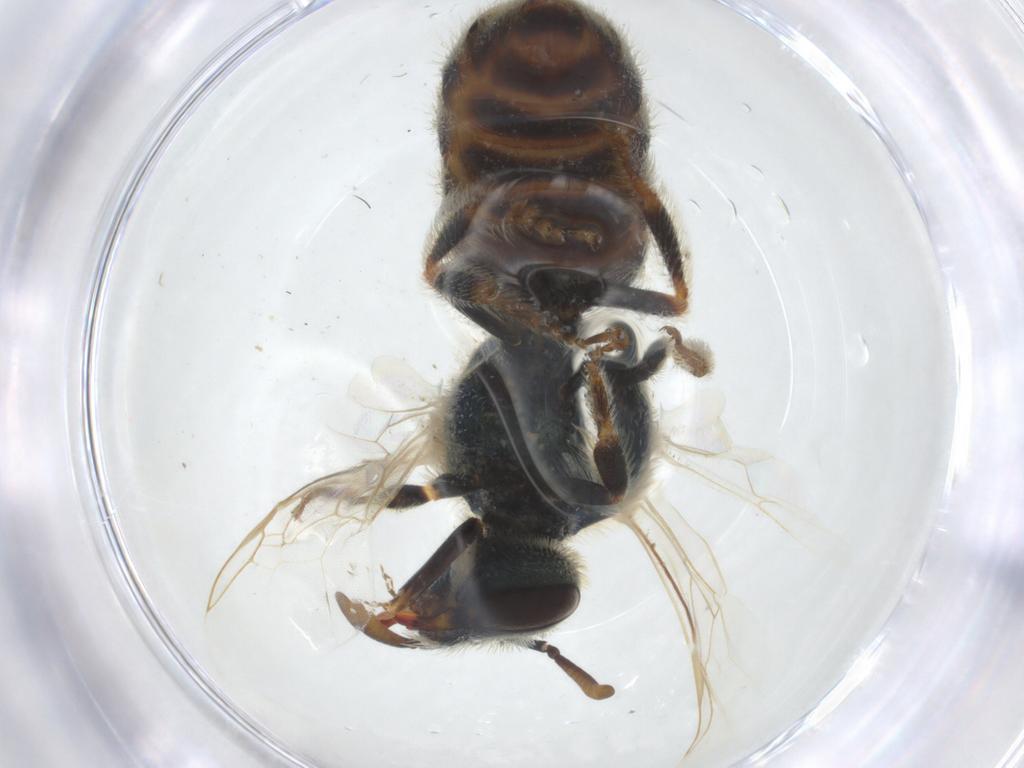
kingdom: Animalia
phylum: Arthropoda
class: Insecta
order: Hymenoptera
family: Halictidae
